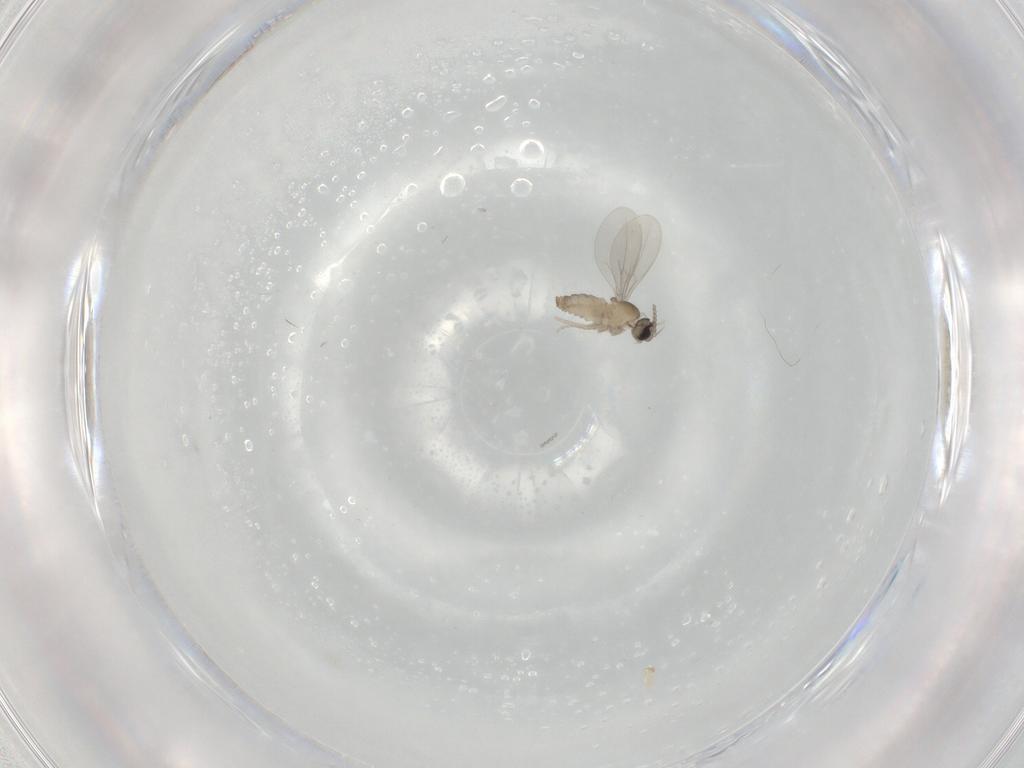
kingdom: Animalia
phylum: Arthropoda
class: Insecta
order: Diptera
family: Cecidomyiidae
